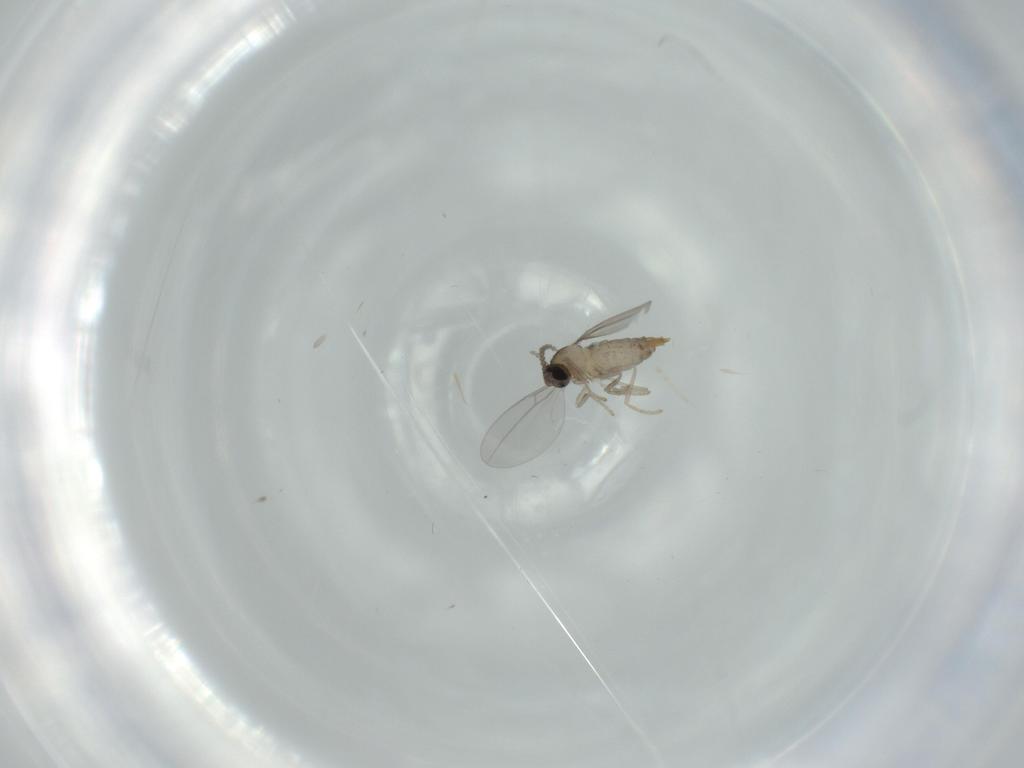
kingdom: Animalia
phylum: Arthropoda
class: Insecta
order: Diptera
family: Cecidomyiidae
